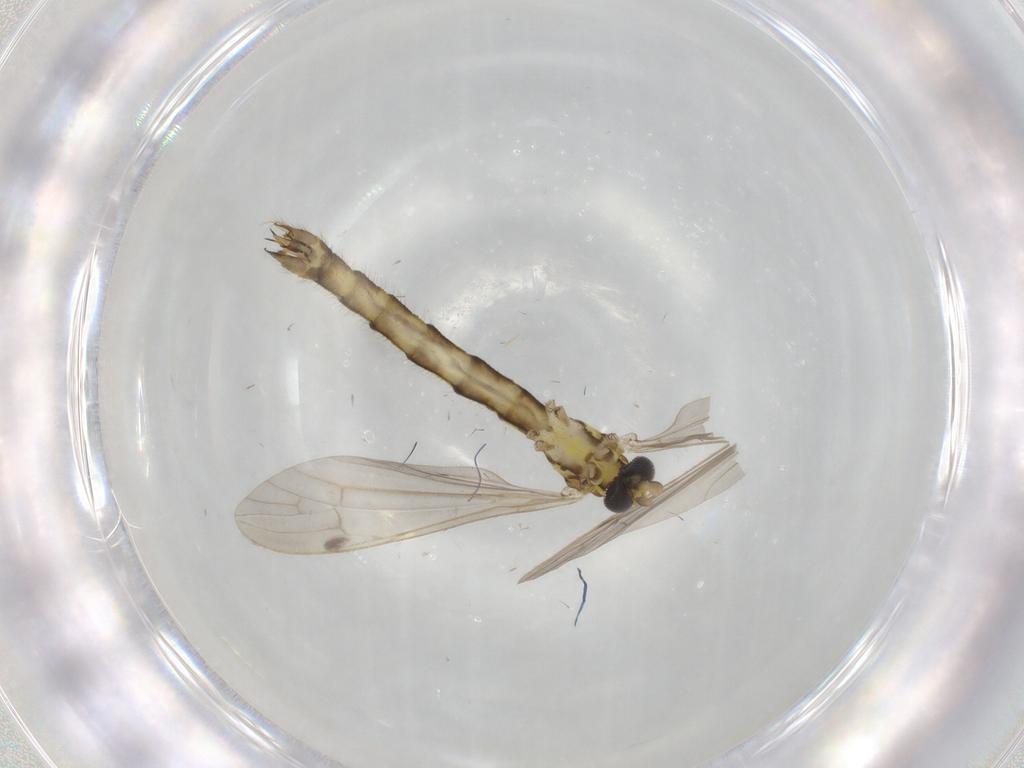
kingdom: Animalia
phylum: Arthropoda
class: Insecta
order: Diptera
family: Limoniidae
